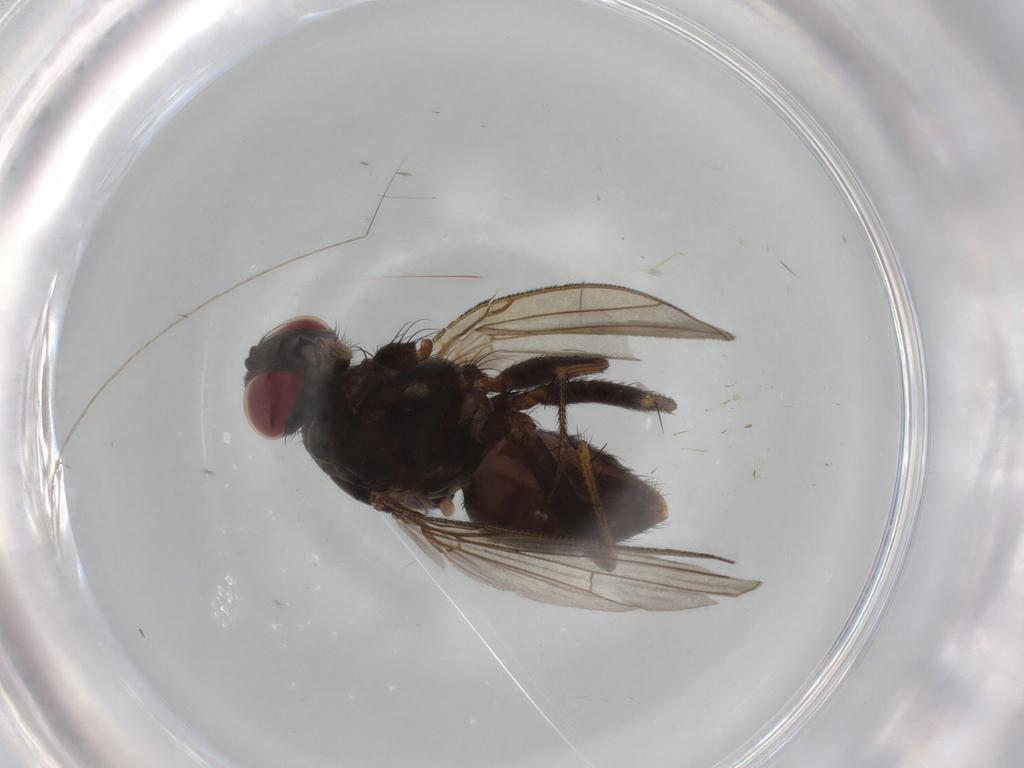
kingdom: Animalia
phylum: Arthropoda
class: Insecta
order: Diptera
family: Muscidae
